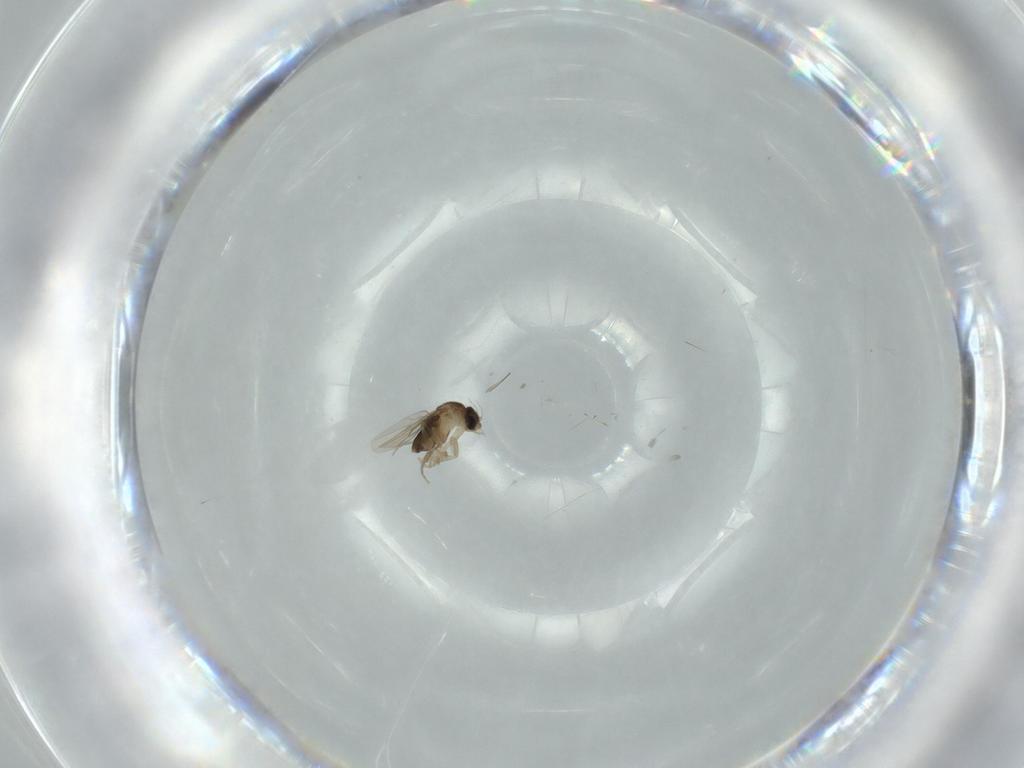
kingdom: Animalia
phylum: Arthropoda
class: Insecta
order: Diptera
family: Phoridae
